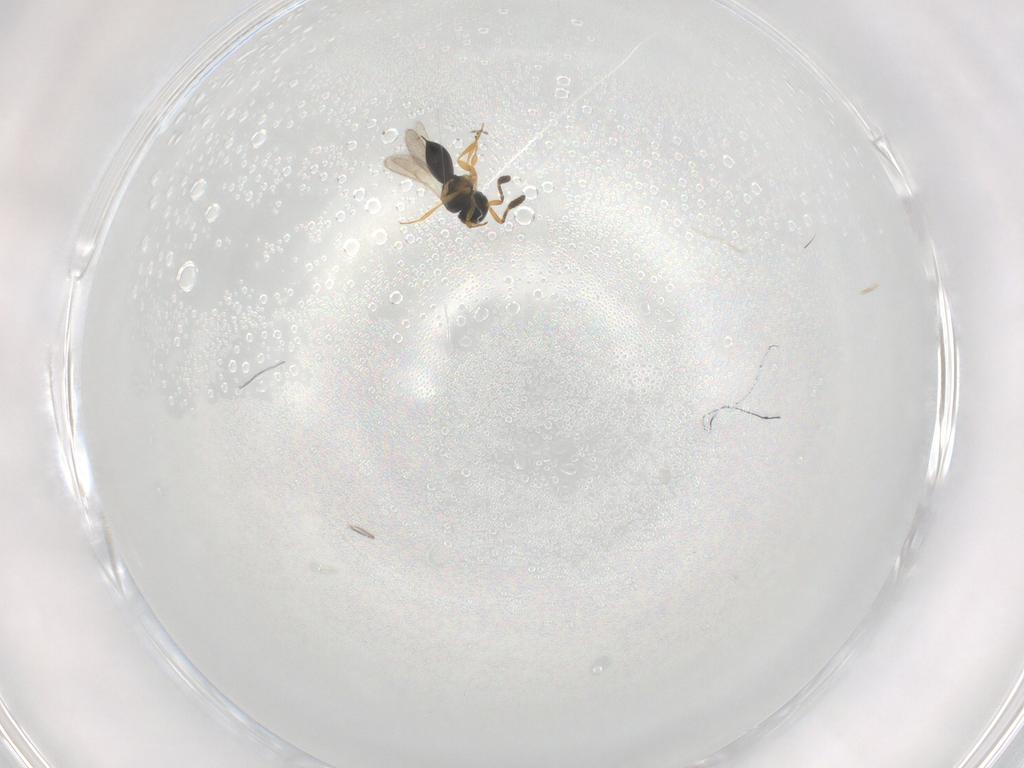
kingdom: Animalia
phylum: Arthropoda
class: Insecta
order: Hymenoptera
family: Scelionidae
